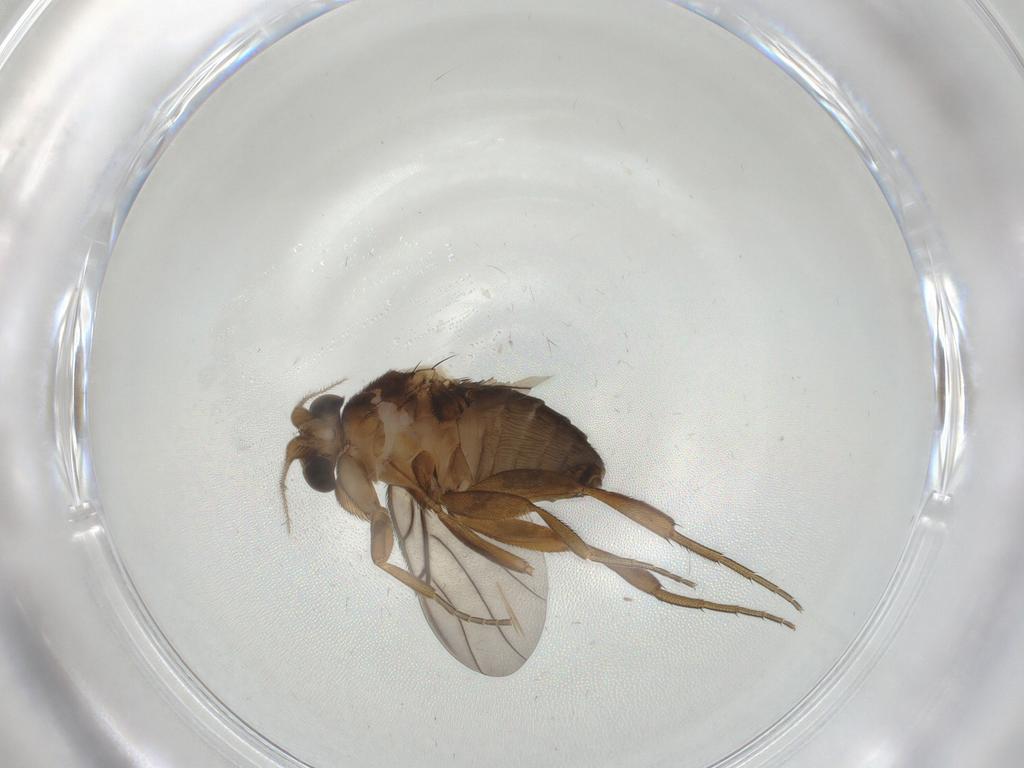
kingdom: Animalia
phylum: Arthropoda
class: Insecta
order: Diptera
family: Phoridae
